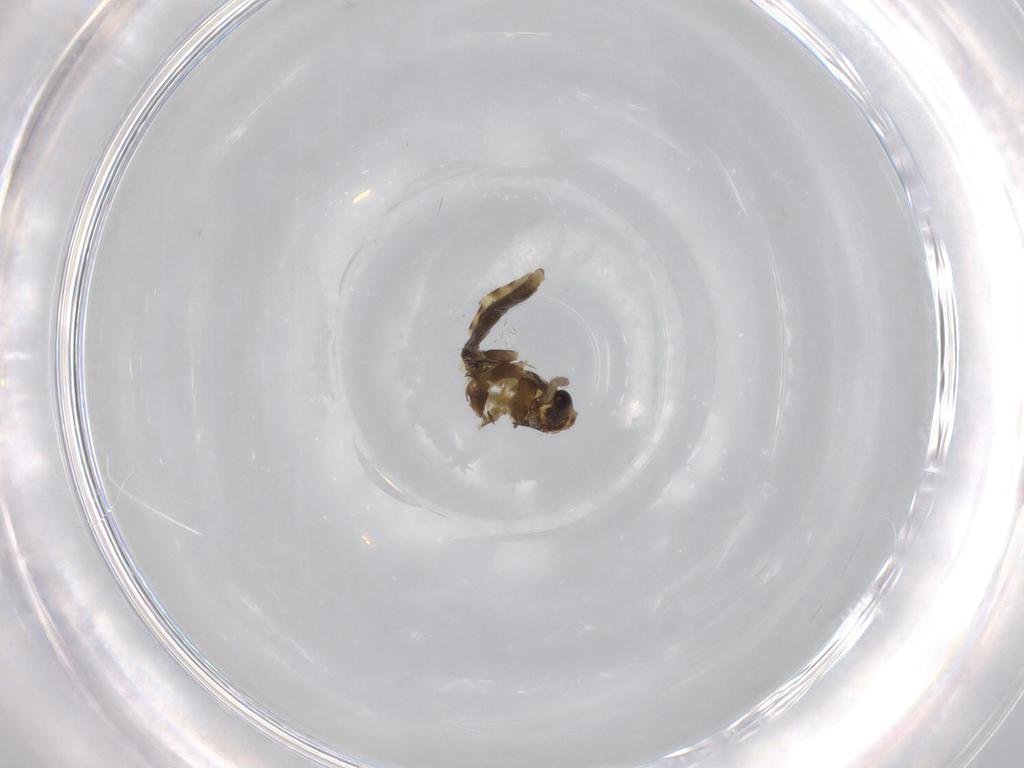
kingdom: Animalia
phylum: Arthropoda
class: Insecta
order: Diptera
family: Chironomidae
